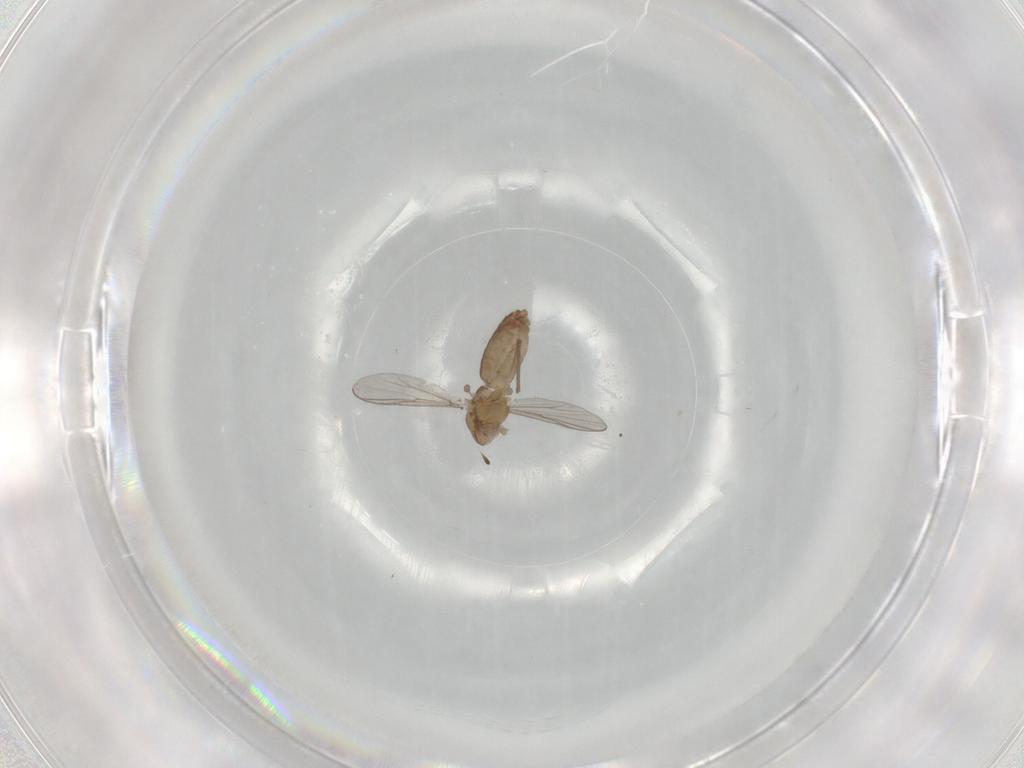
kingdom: Animalia
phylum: Arthropoda
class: Insecta
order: Diptera
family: Chironomidae
